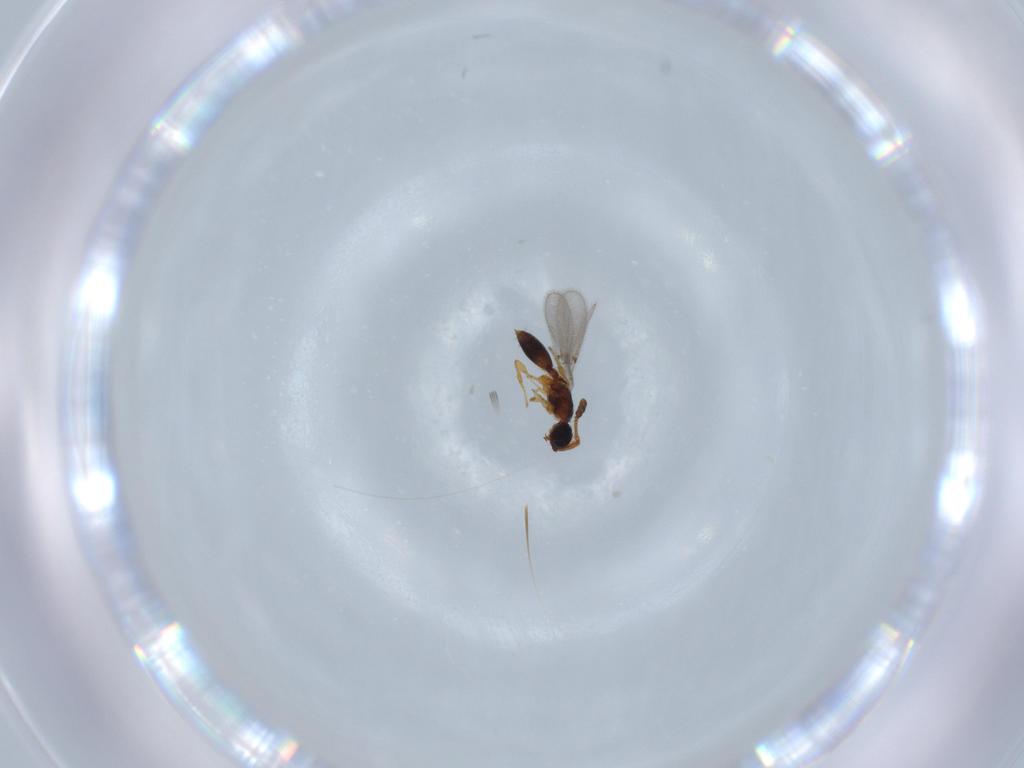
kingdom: Animalia
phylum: Arthropoda
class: Insecta
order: Hymenoptera
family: Diapriidae
